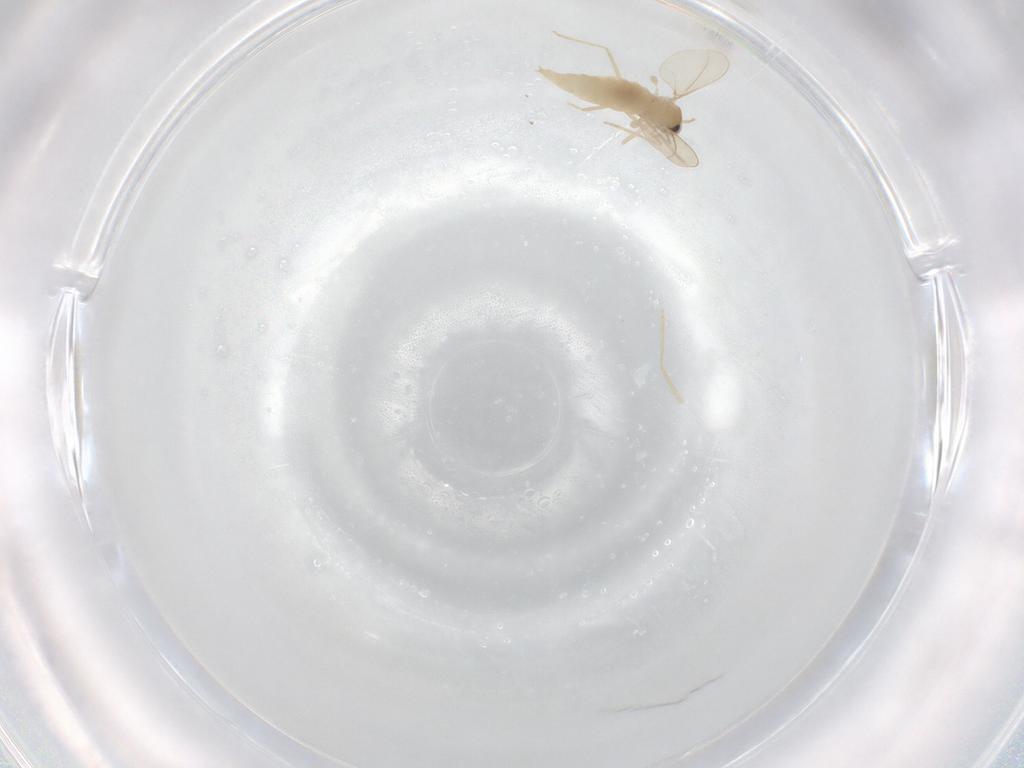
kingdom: Animalia
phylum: Arthropoda
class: Insecta
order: Diptera
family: Cecidomyiidae
